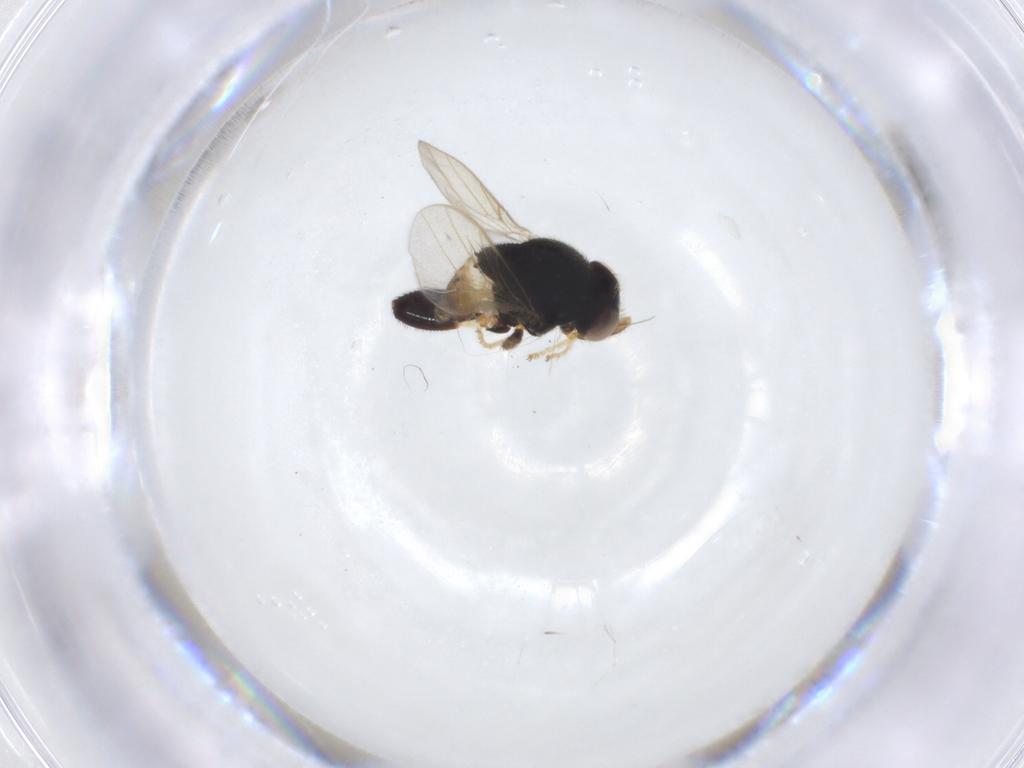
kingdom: Animalia
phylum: Arthropoda
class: Insecta
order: Diptera
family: Chloropidae
